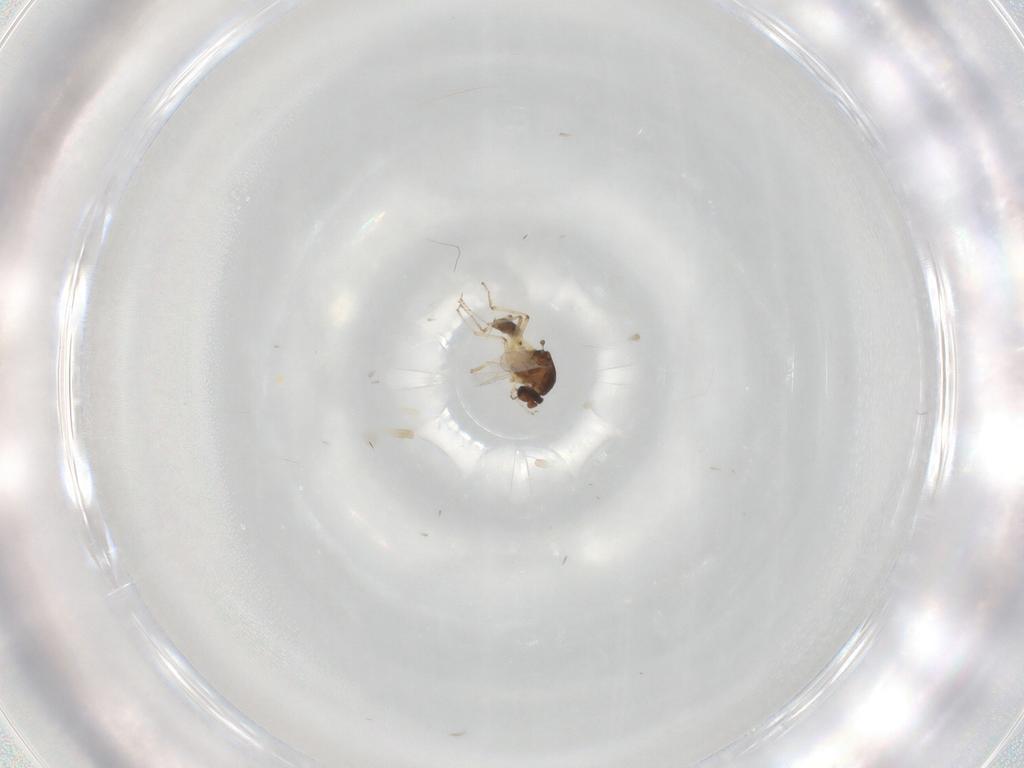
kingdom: Animalia
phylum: Arthropoda
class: Insecta
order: Diptera
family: Ceratopogonidae
